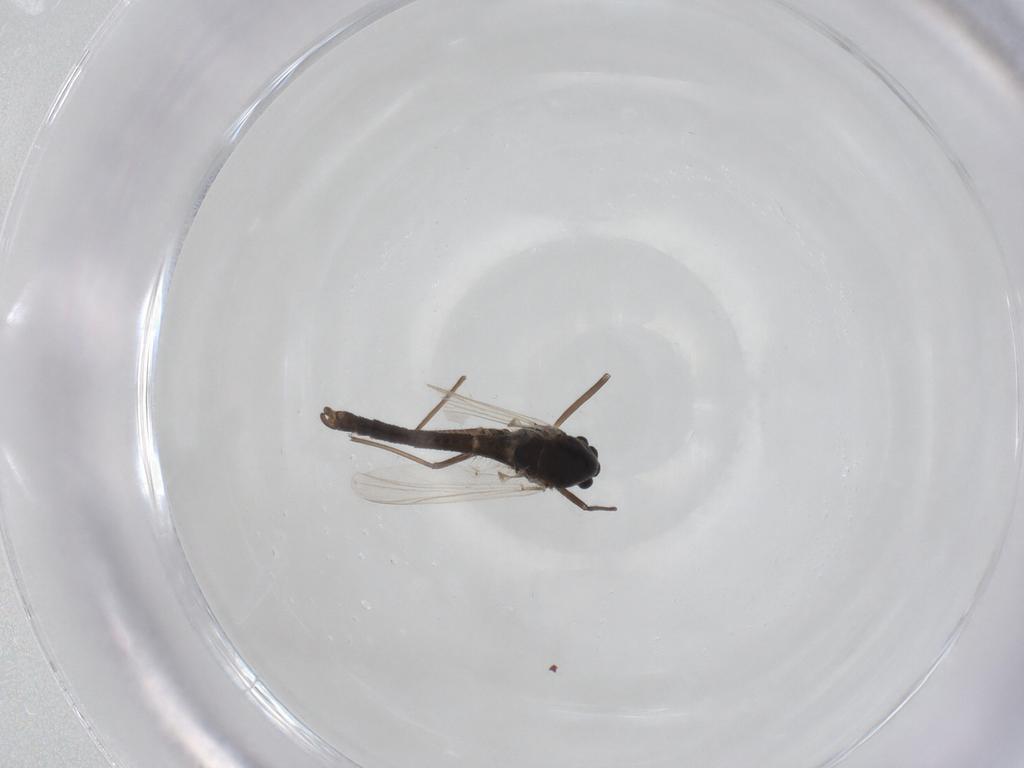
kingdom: Animalia
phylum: Arthropoda
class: Insecta
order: Diptera
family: Chironomidae
